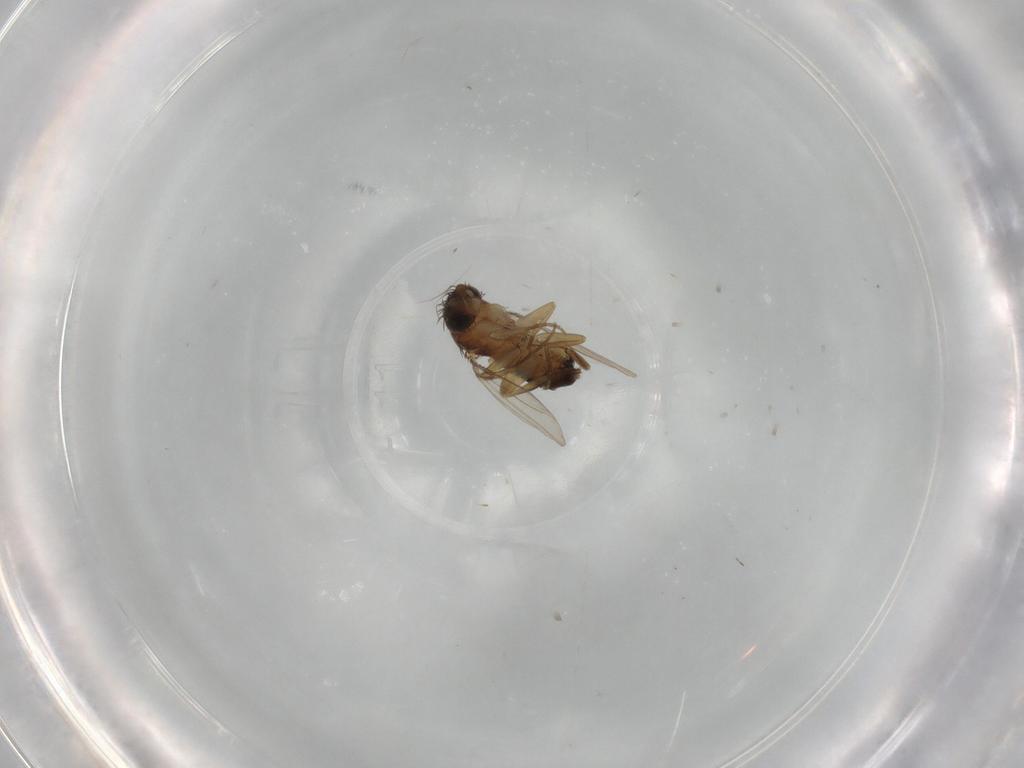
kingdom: Animalia
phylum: Arthropoda
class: Insecta
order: Diptera
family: Phoridae
